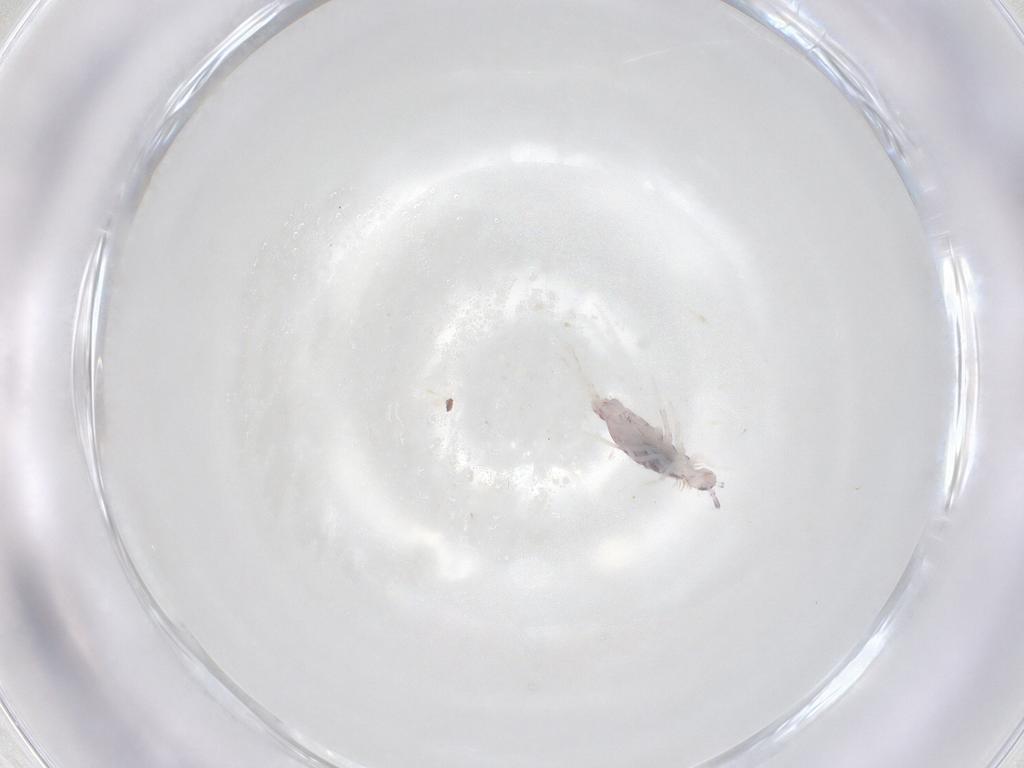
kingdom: Animalia
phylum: Arthropoda
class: Collembola
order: Poduromorpha
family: Hypogastruridae
